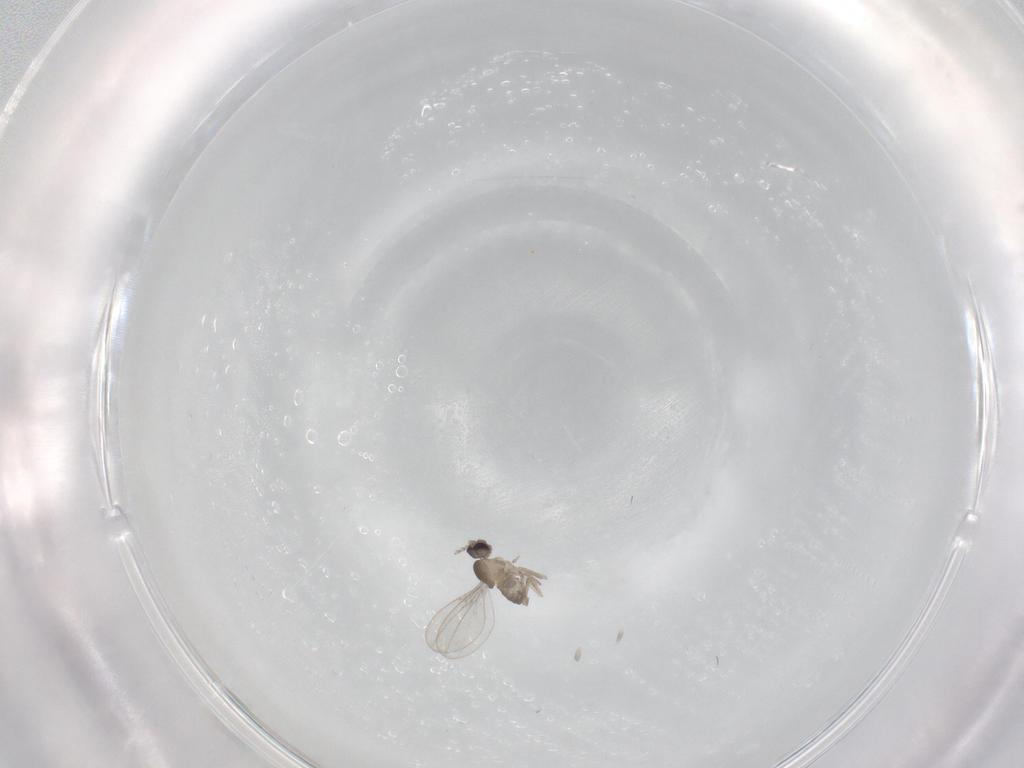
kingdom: Animalia
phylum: Arthropoda
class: Insecta
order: Diptera
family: Cecidomyiidae
